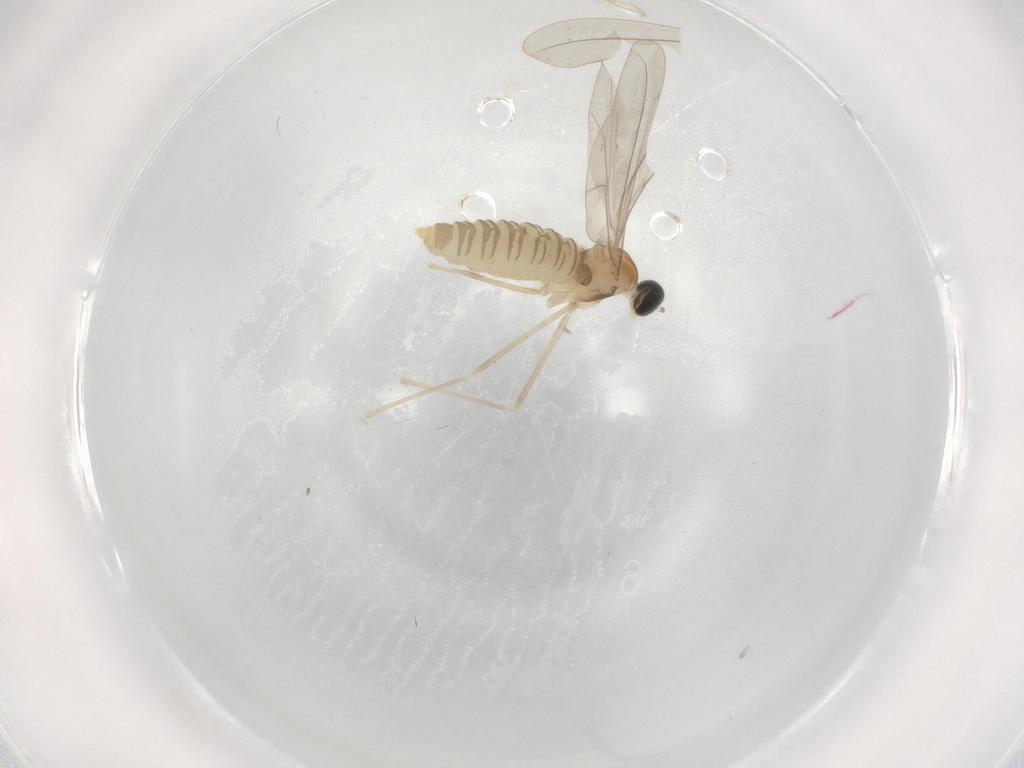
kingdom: Animalia
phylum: Arthropoda
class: Insecta
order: Diptera
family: Cecidomyiidae
